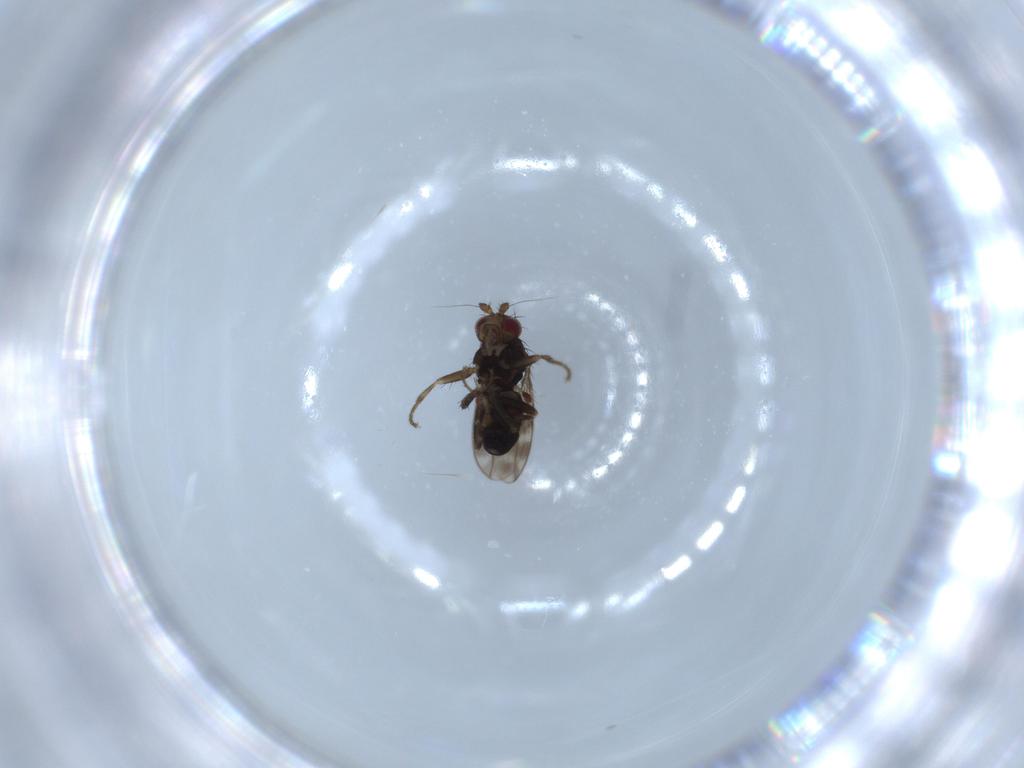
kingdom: Animalia
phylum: Arthropoda
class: Insecta
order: Diptera
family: Sphaeroceridae
